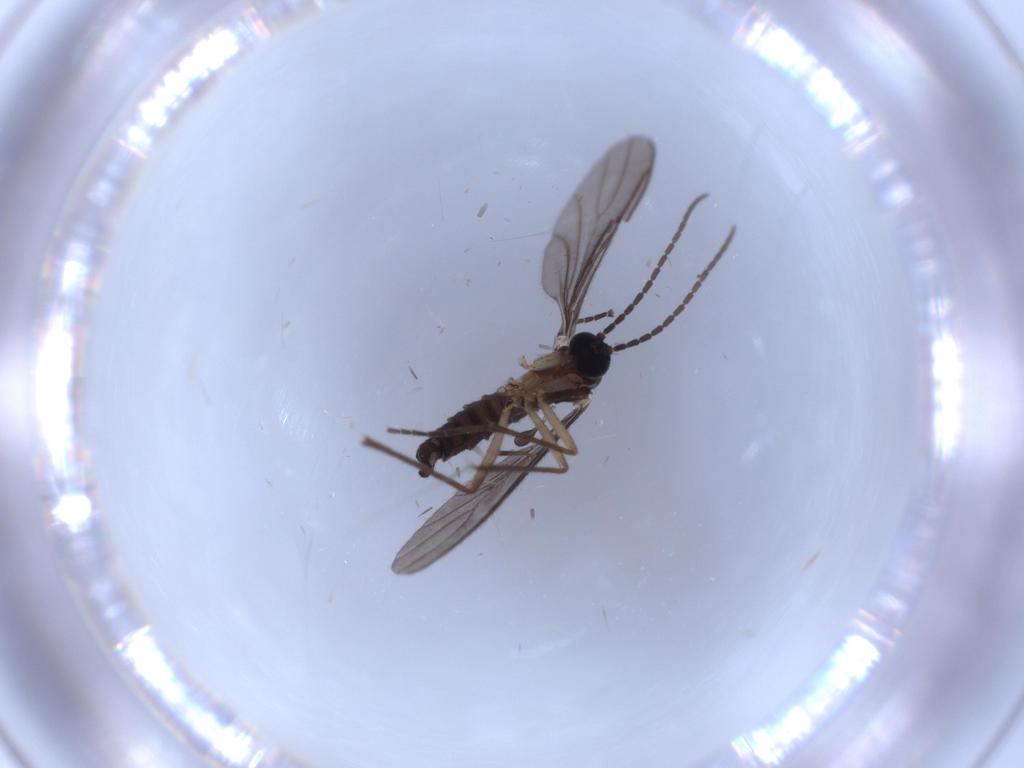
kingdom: Animalia
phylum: Arthropoda
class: Insecta
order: Diptera
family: Sciaridae
